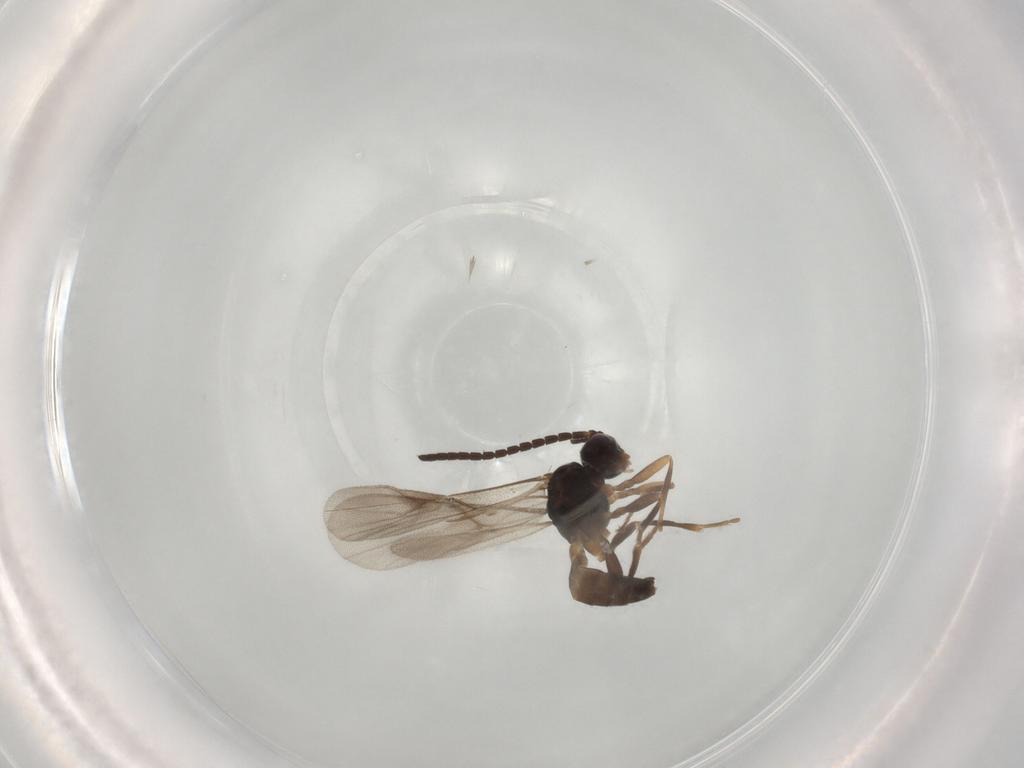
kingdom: Animalia
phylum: Arthropoda
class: Insecta
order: Hymenoptera
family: Braconidae
